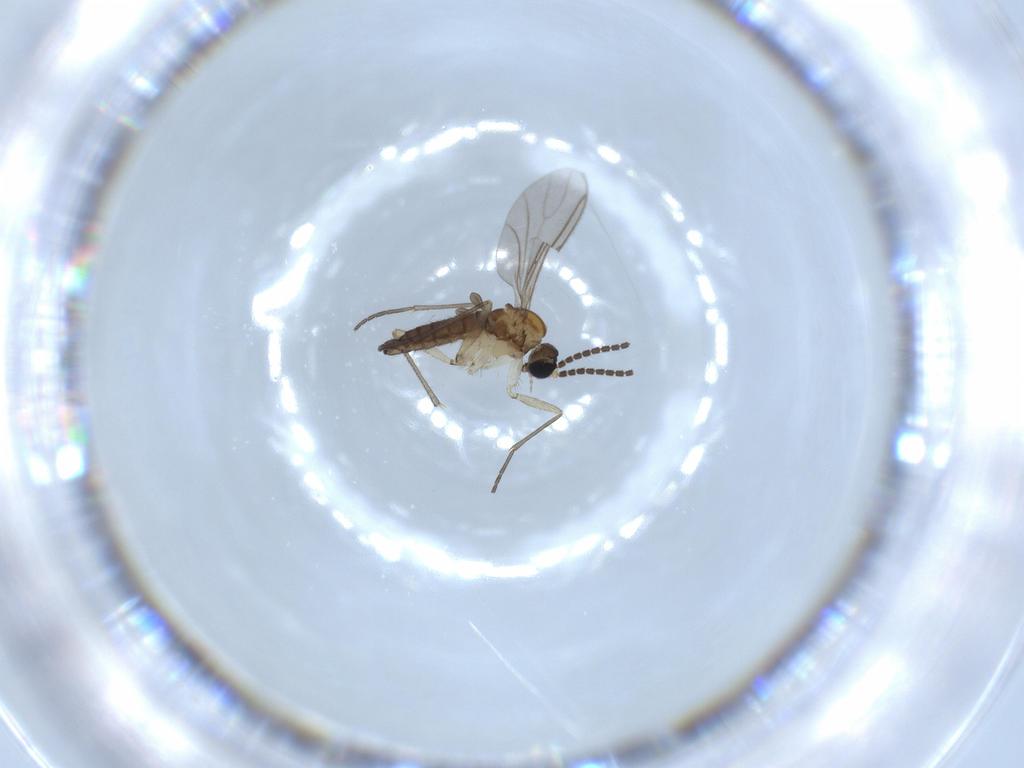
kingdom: Animalia
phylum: Arthropoda
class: Insecta
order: Diptera
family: Sciaridae
